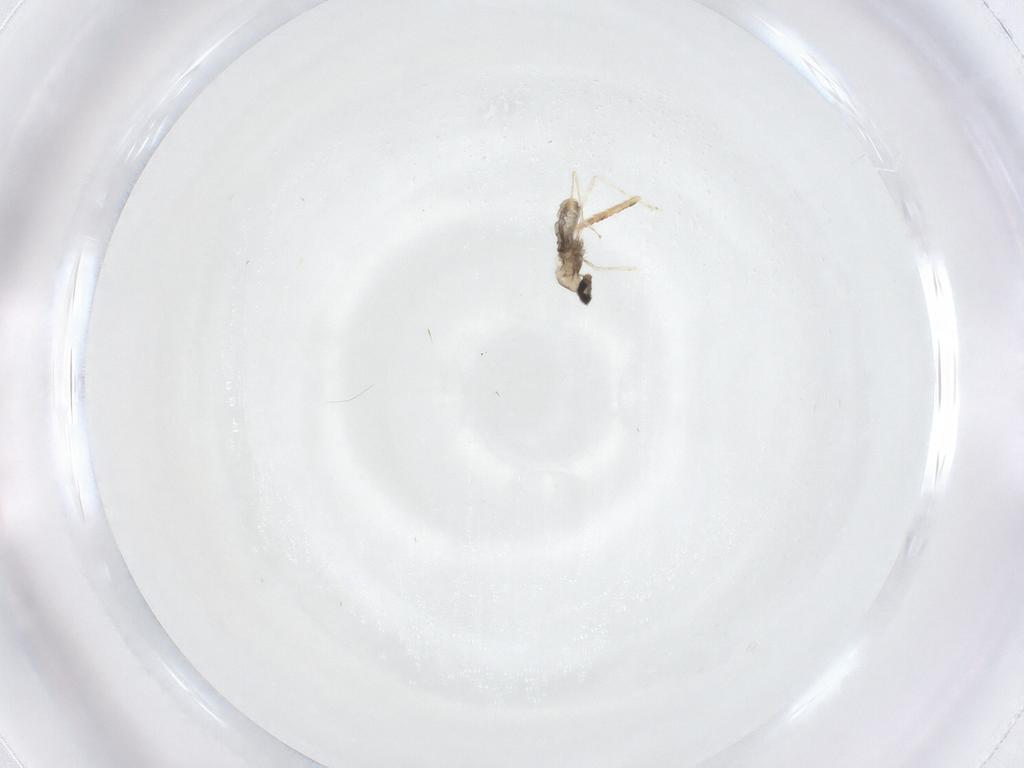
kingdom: Animalia
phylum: Arthropoda
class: Insecta
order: Diptera
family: Cecidomyiidae
